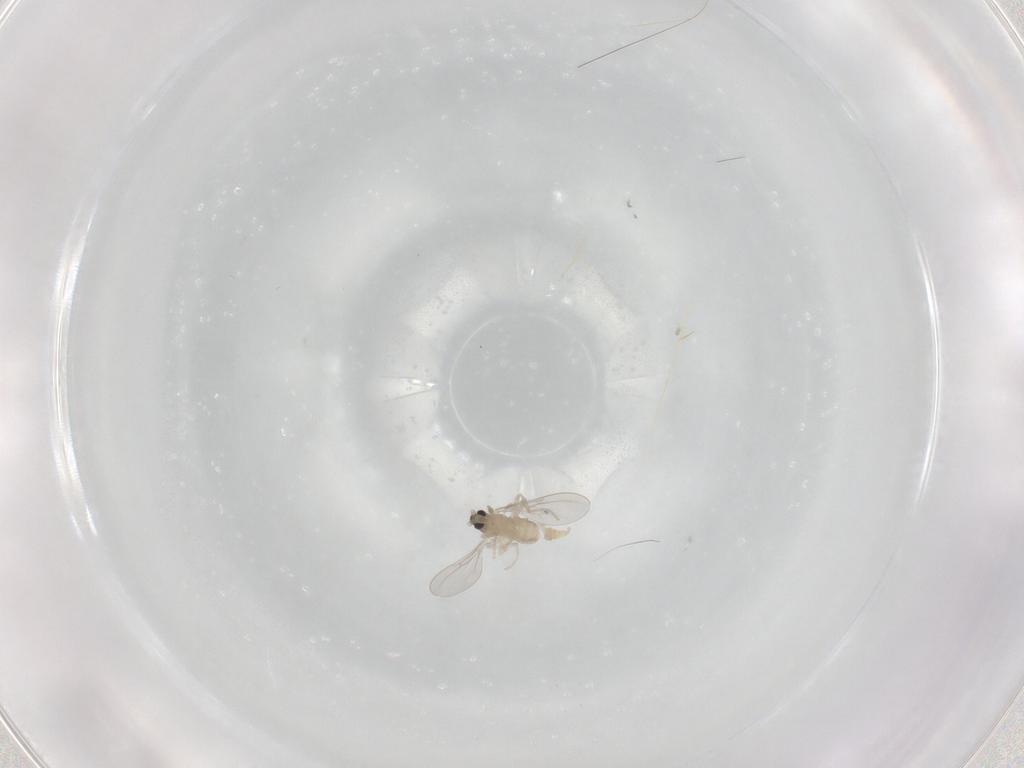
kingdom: Animalia
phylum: Arthropoda
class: Insecta
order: Diptera
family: Cecidomyiidae
